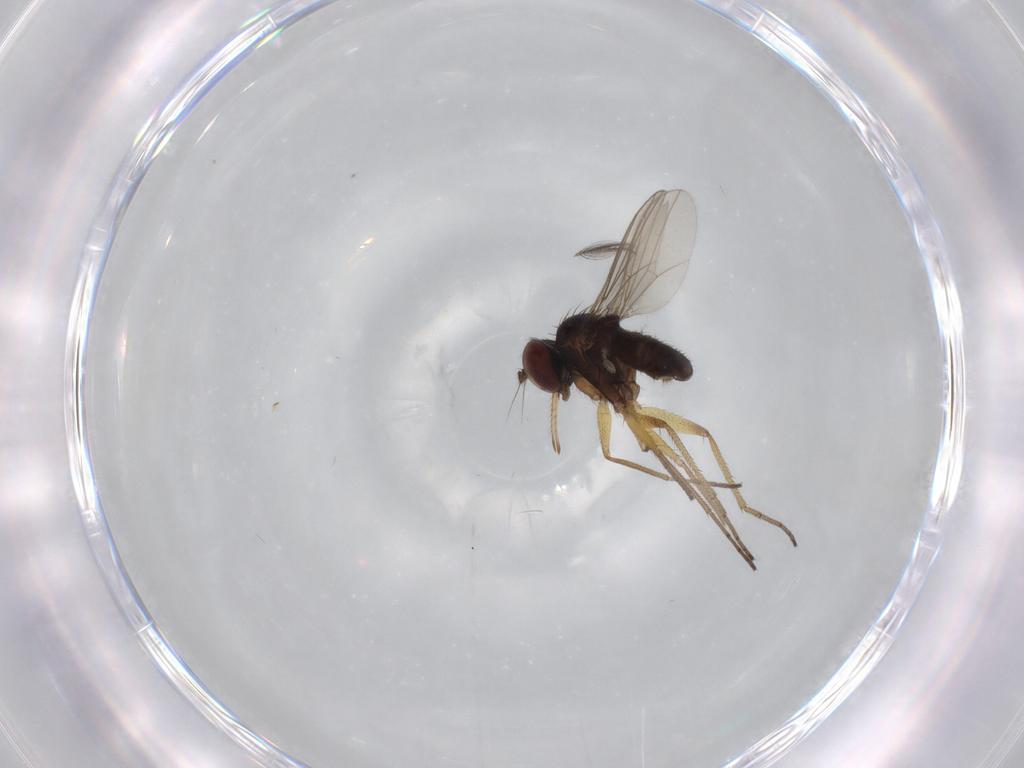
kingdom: Animalia
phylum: Arthropoda
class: Insecta
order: Diptera
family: Dolichopodidae
